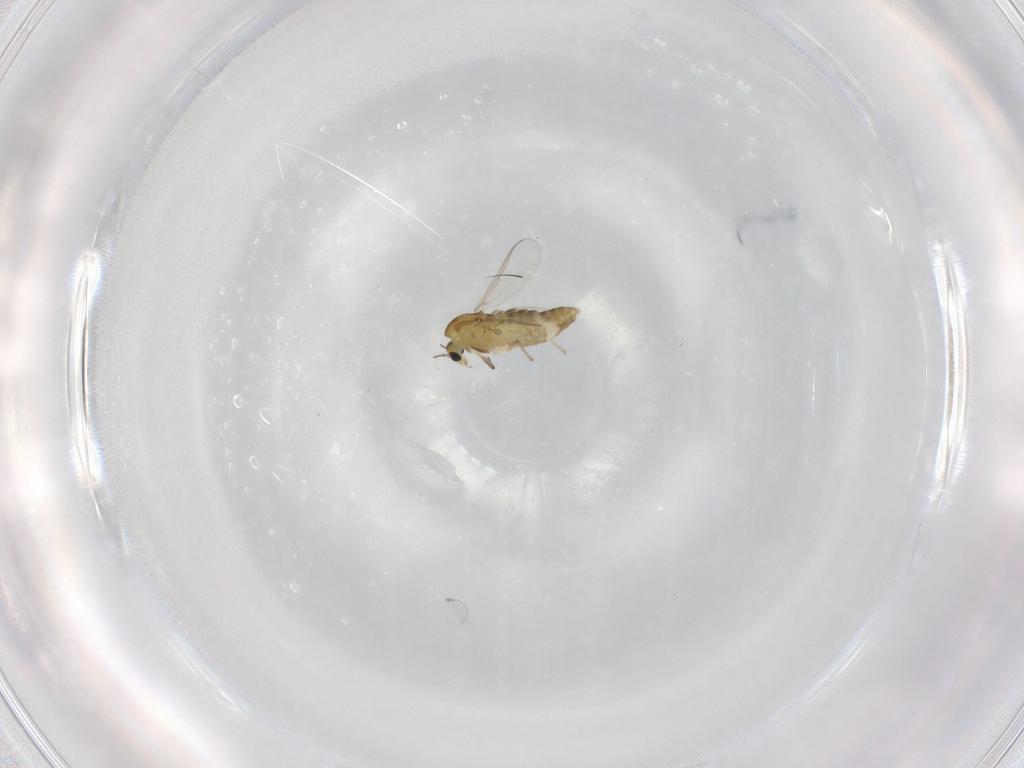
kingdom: Animalia
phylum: Arthropoda
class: Insecta
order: Diptera
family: Chironomidae
